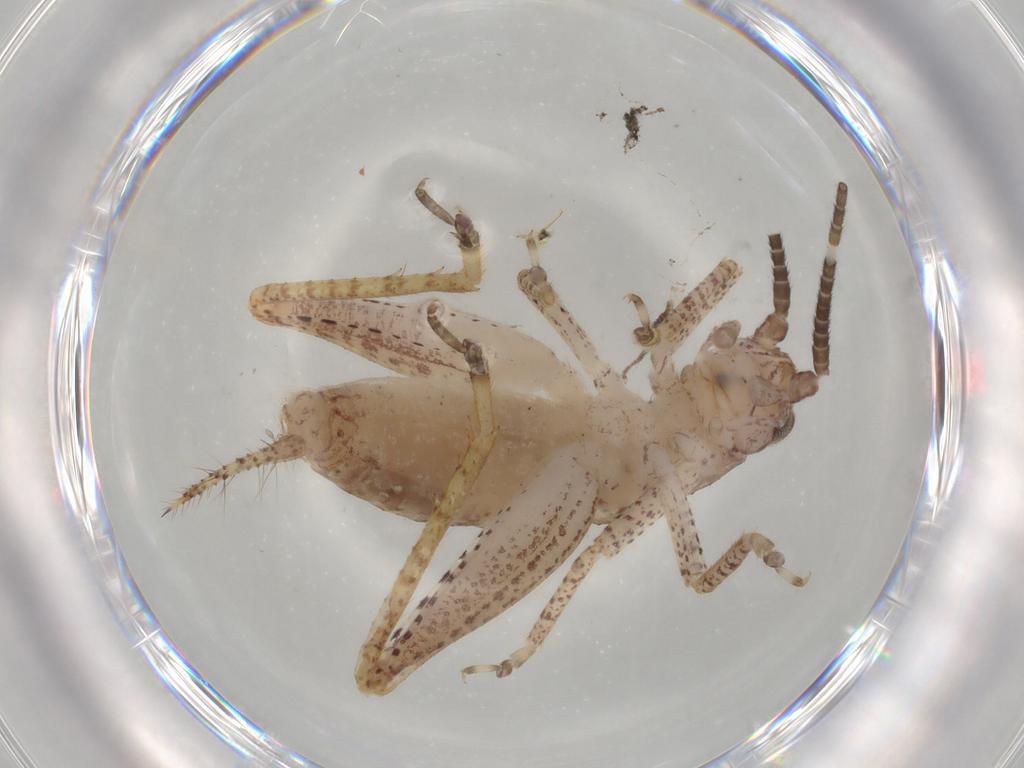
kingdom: Animalia
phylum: Arthropoda
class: Insecta
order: Orthoptera
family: Gryllidae
